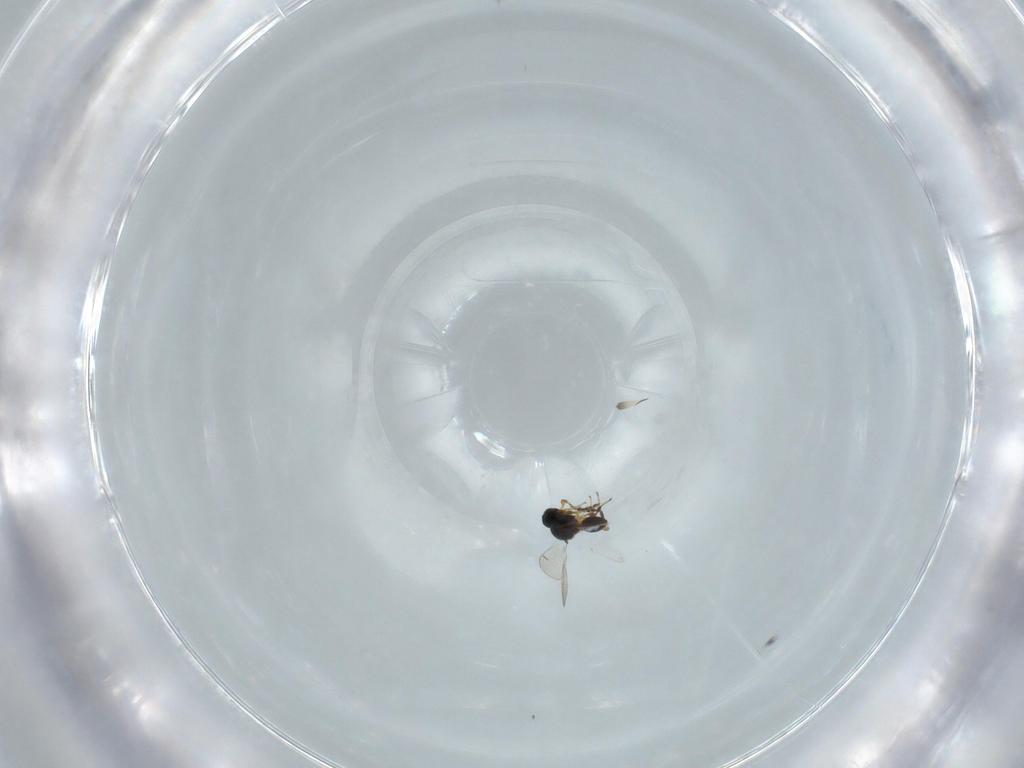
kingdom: Animalia
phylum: Arthropoda
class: Insecta
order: Hymenoptera
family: Platygastridae
